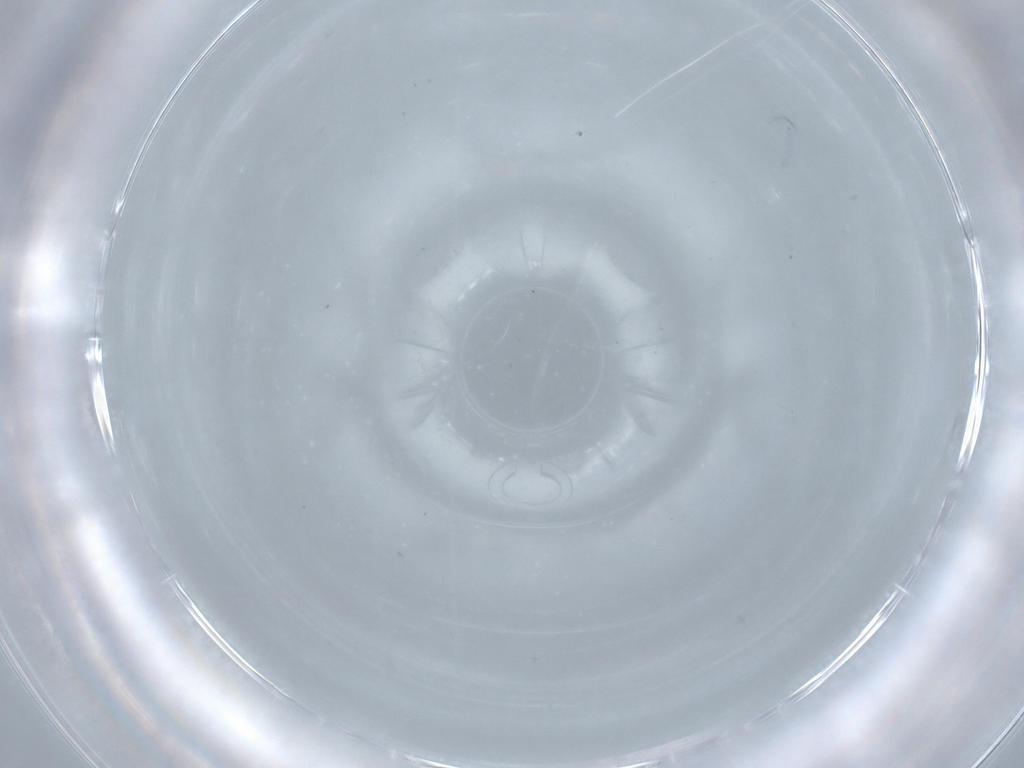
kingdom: Animalia
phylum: Arthropoda
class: Insecta
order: Diptera
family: Cecidomyiidae
